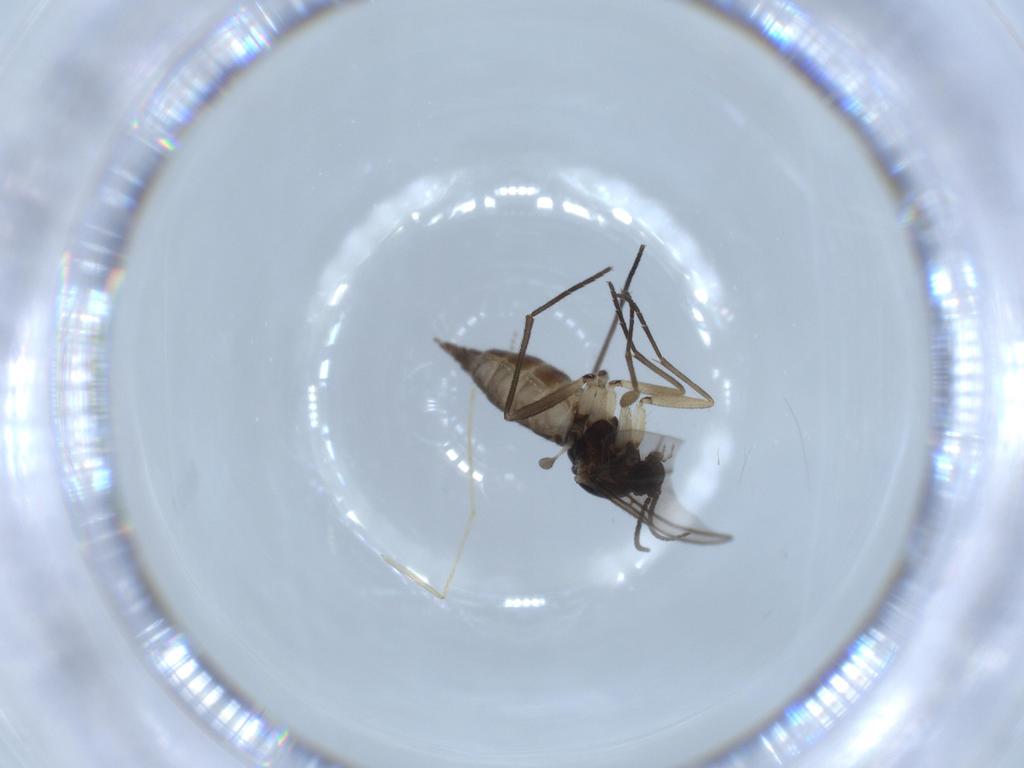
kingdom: Animalia
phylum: Arthropoda
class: Insecta
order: Diptera
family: Sciaridae
